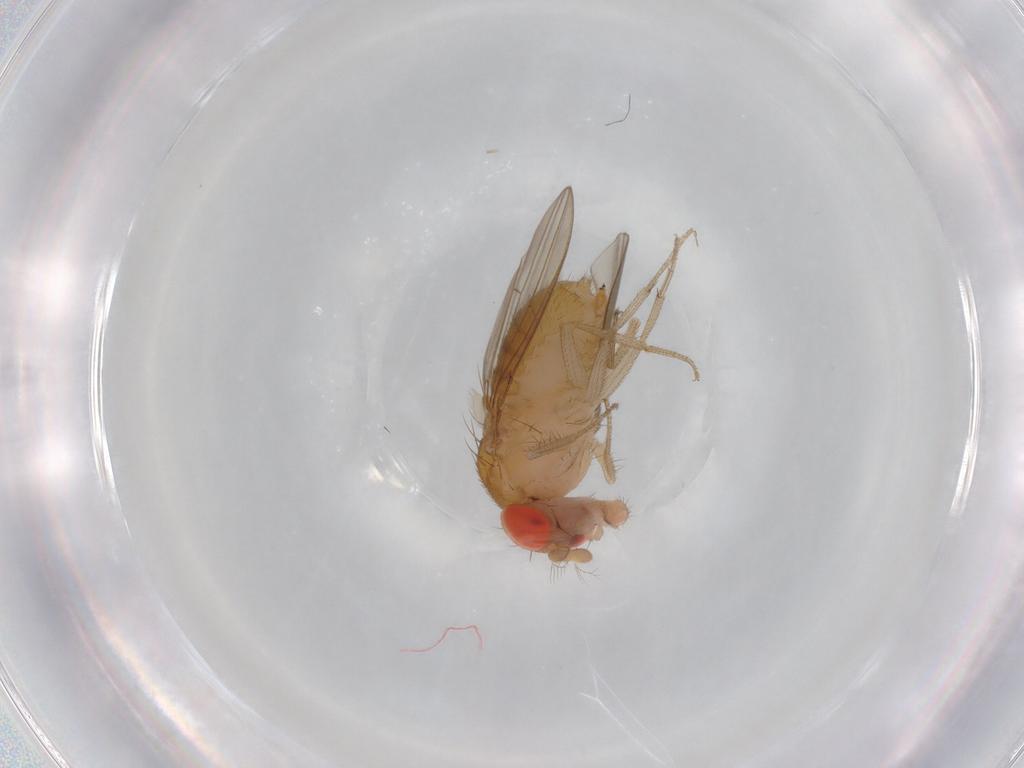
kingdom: Animalia
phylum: Arthropoda
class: Insecta
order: Diptera
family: Drosophilidae
